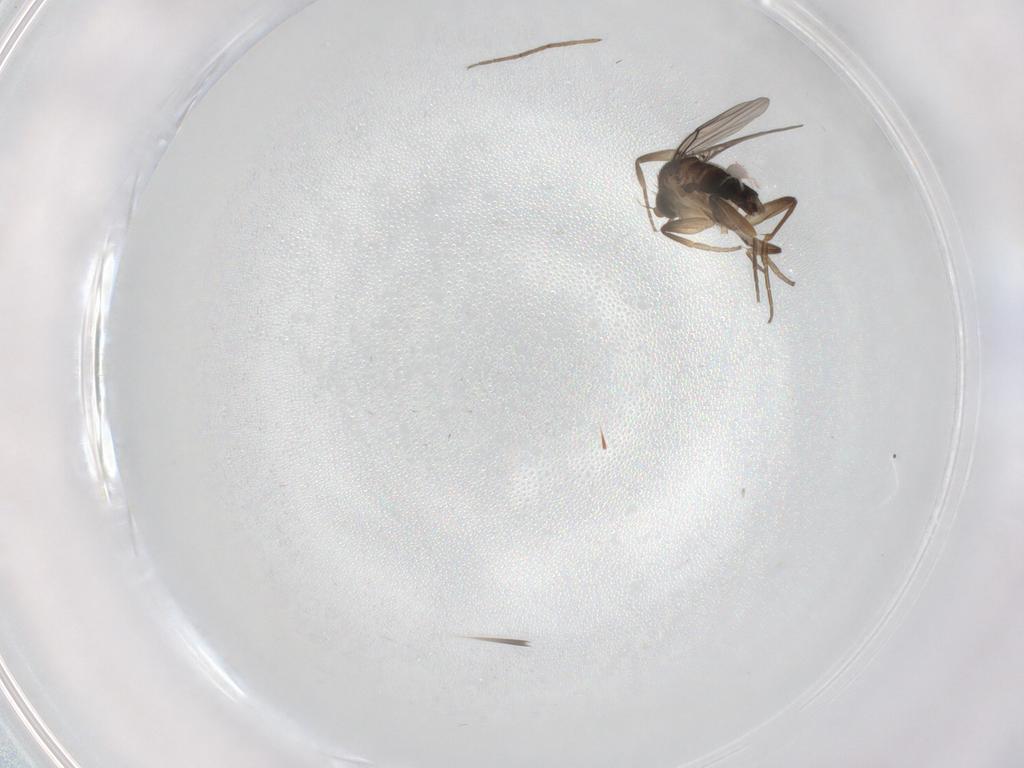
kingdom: Animalia
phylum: Arthropoda
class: Insecta
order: Diptera
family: Phoridae
